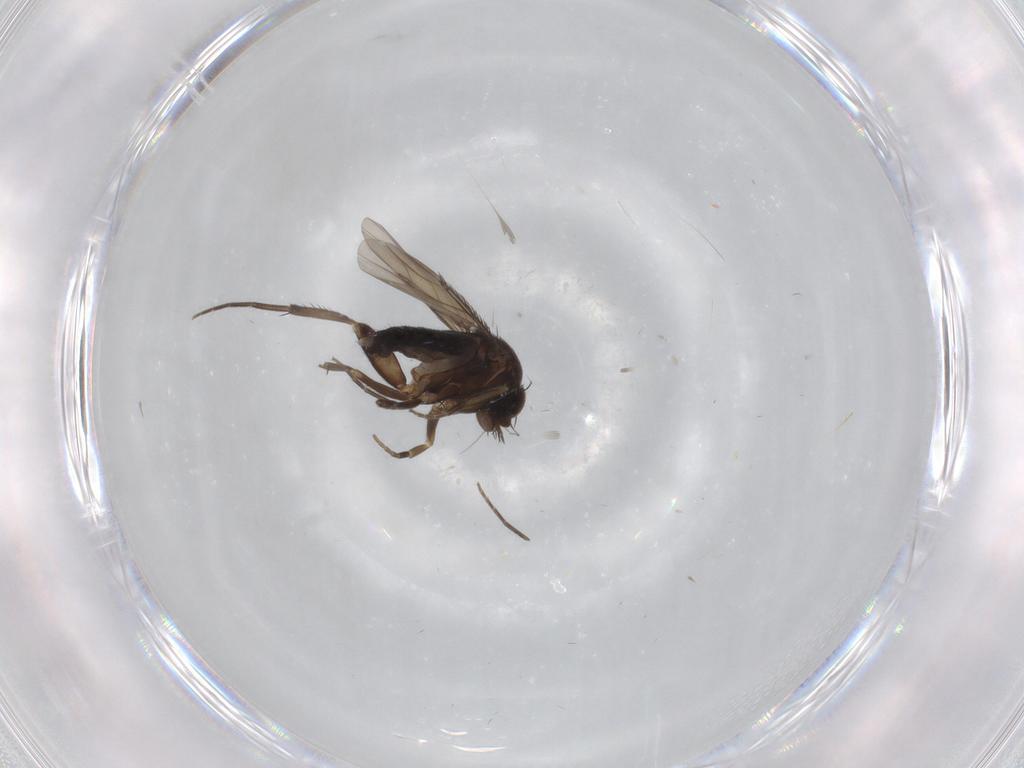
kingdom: Animalia
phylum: Arthropoda
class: Insecta
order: Diptera
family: Phoridae
